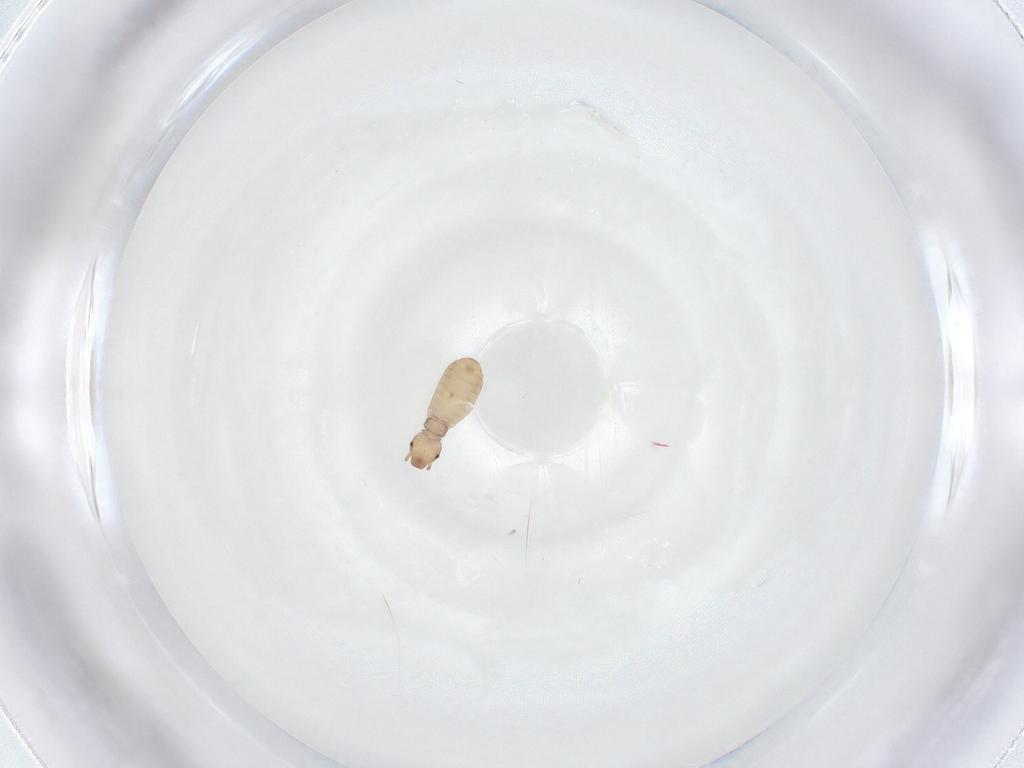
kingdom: Animalia
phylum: Arthropoda
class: Insecta
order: Psocodea
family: Liposcelididae
